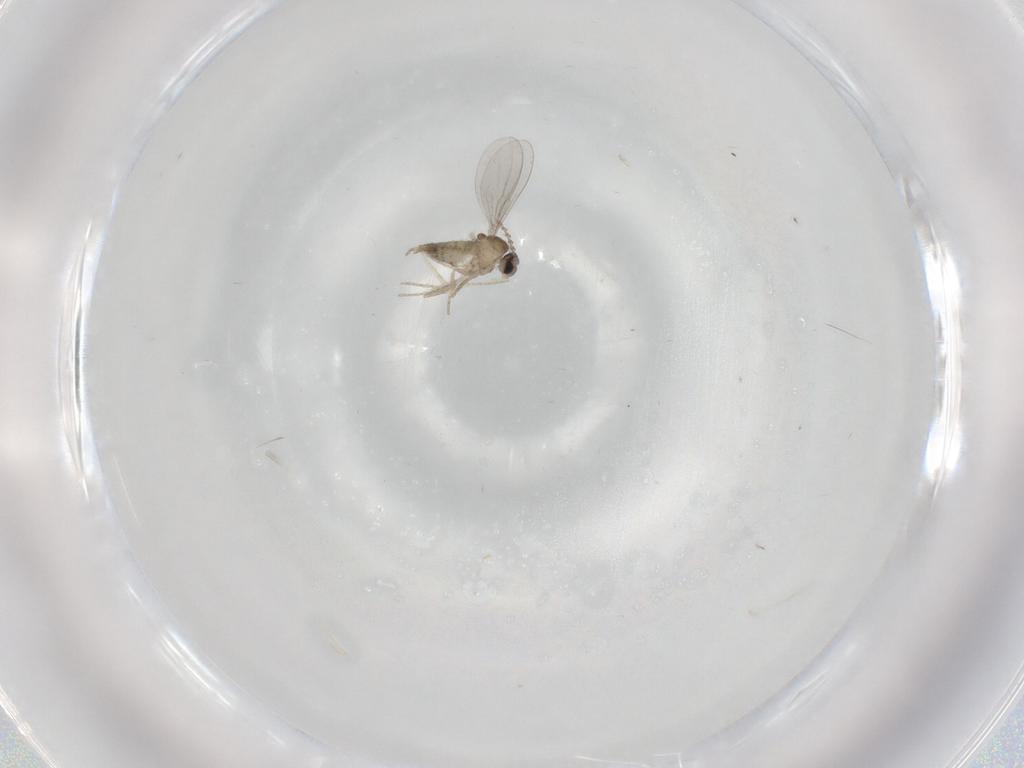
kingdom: Animalia
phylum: Arthropoda
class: Insecta
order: Diptera
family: Cecidomyiidae
